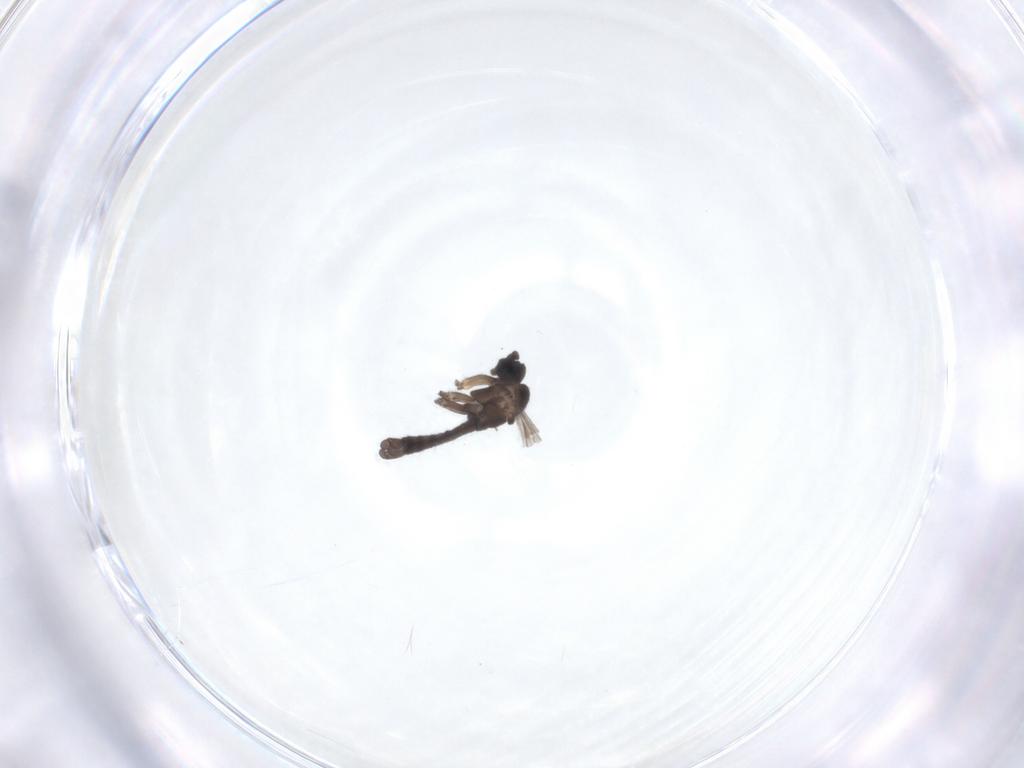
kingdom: Animalia
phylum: Arthropoda
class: Insecta
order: Diptera
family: Sciaridae
